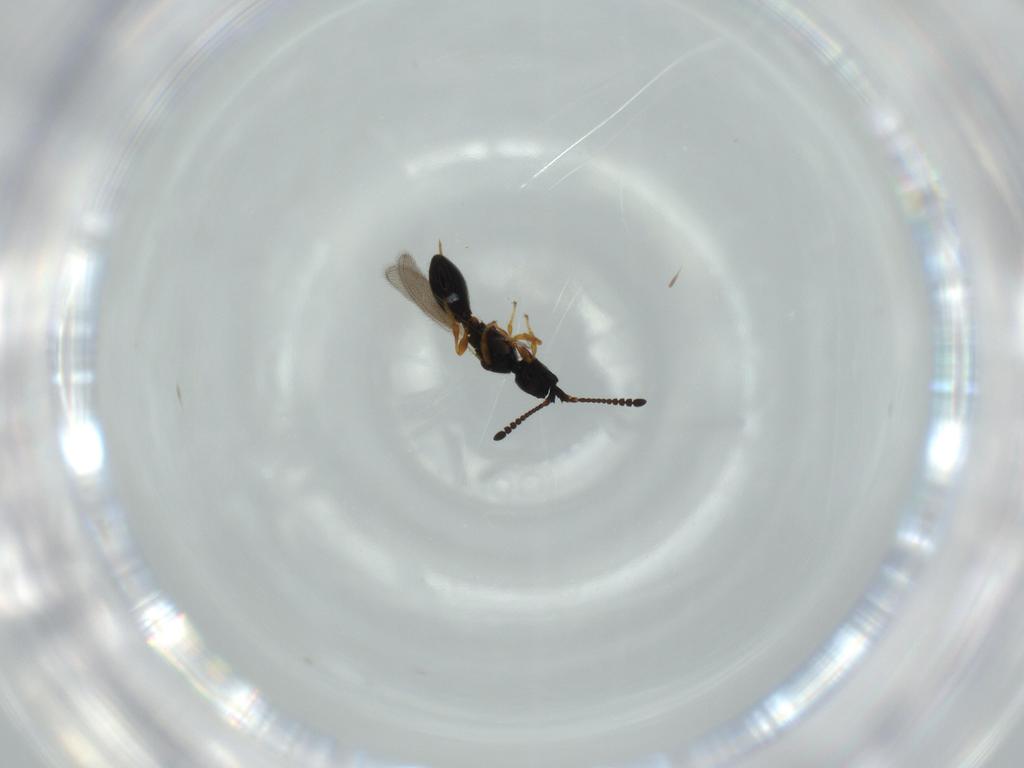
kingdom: Animalia
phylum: Arthropoda
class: Insecta
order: Hymenoptera
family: Diapriidae
